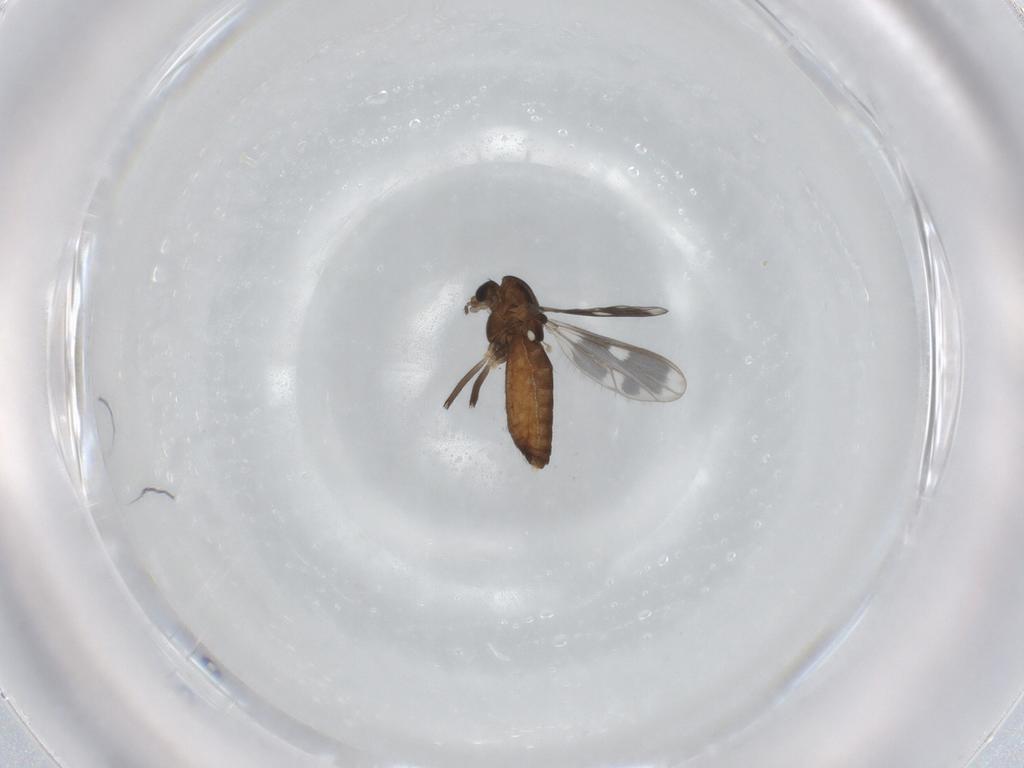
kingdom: Animalia
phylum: Arthropoda
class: Insecta
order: Diptera
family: Chironomidae
